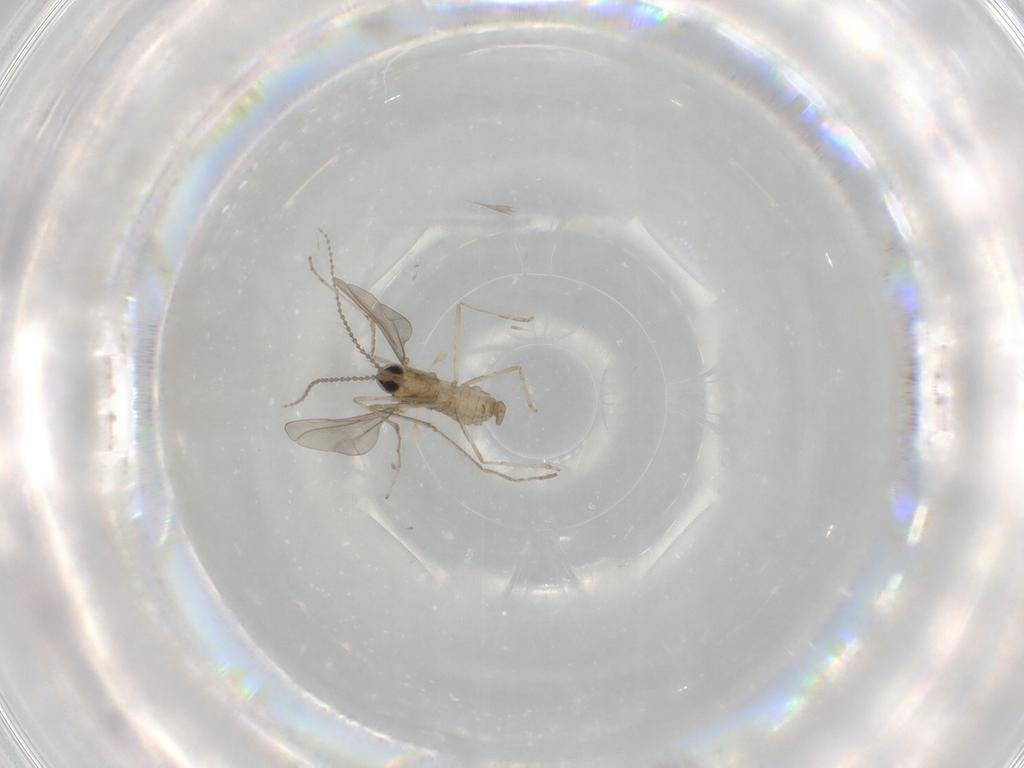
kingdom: Animalia
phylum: Arthropoda
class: Insecta
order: Diptera
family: Cecidomyiidae
